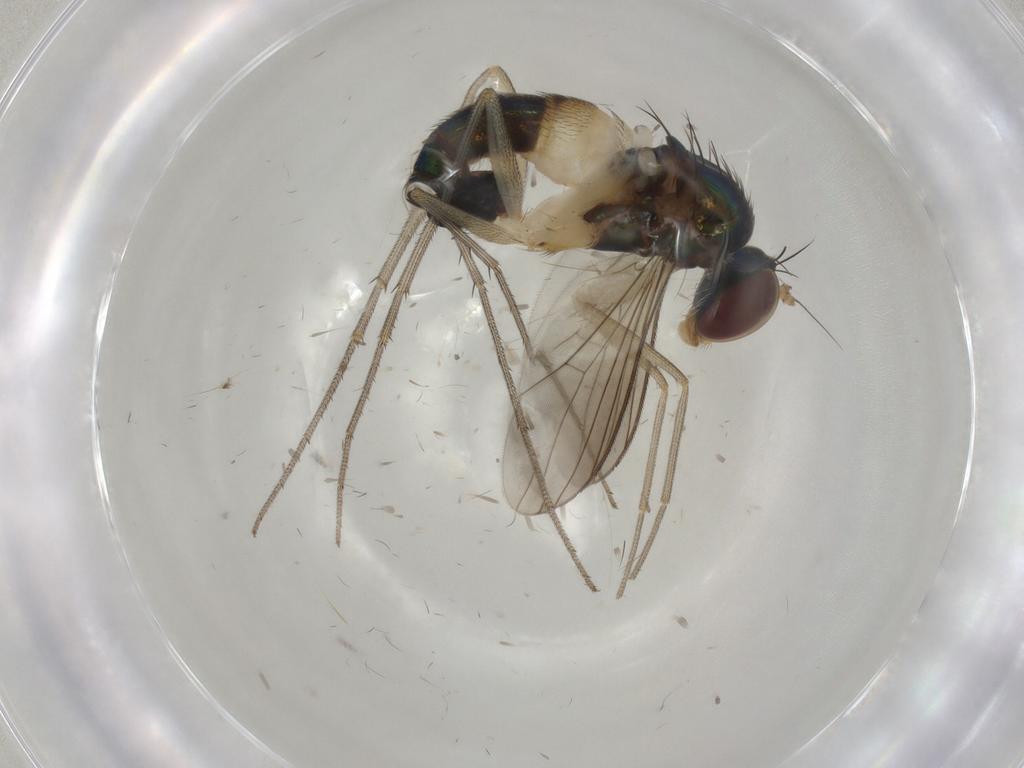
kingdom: Animalia
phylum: Arthropoda
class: Insecta
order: Diptera
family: Dolichopodidae
